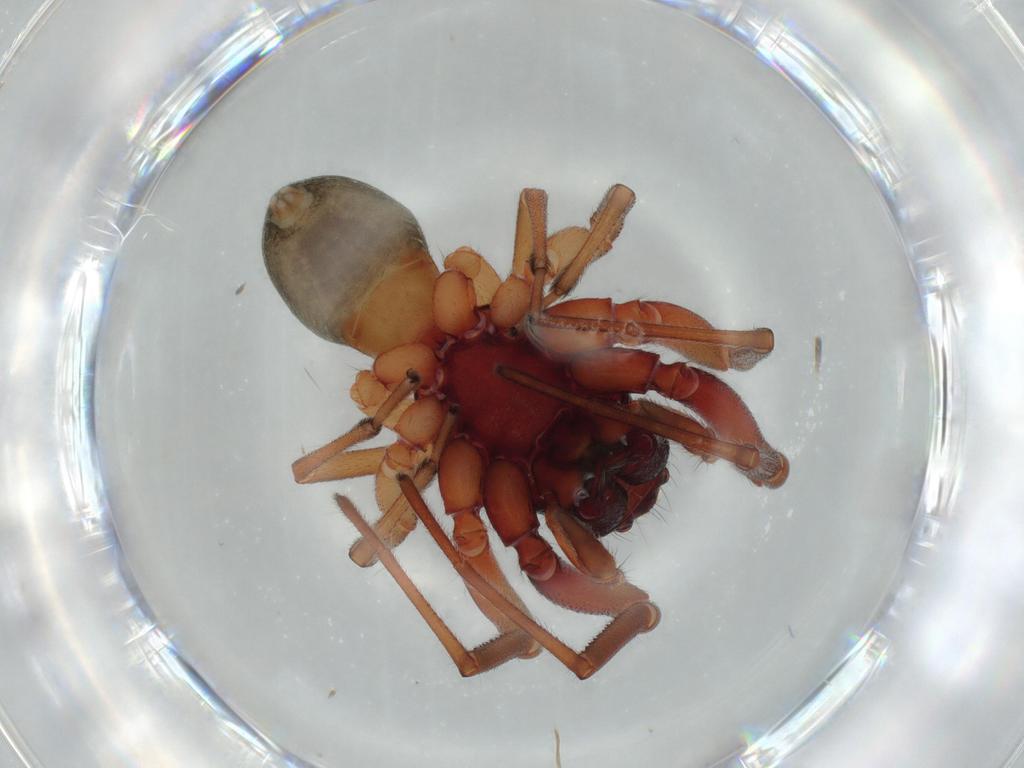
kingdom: Animalia
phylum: Arthropoda
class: Arachnida
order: Araneae
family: Trachelidae
